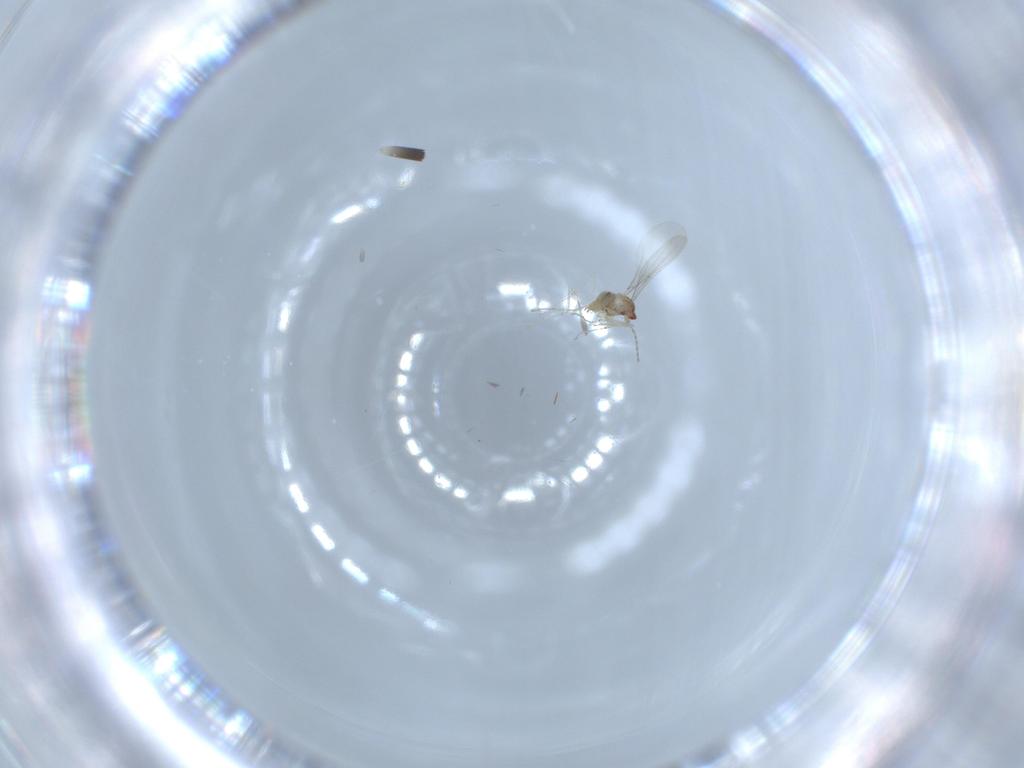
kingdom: Animalia
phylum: Arthropoda
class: Insecta
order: Diptera
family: Cecidomyiidae
